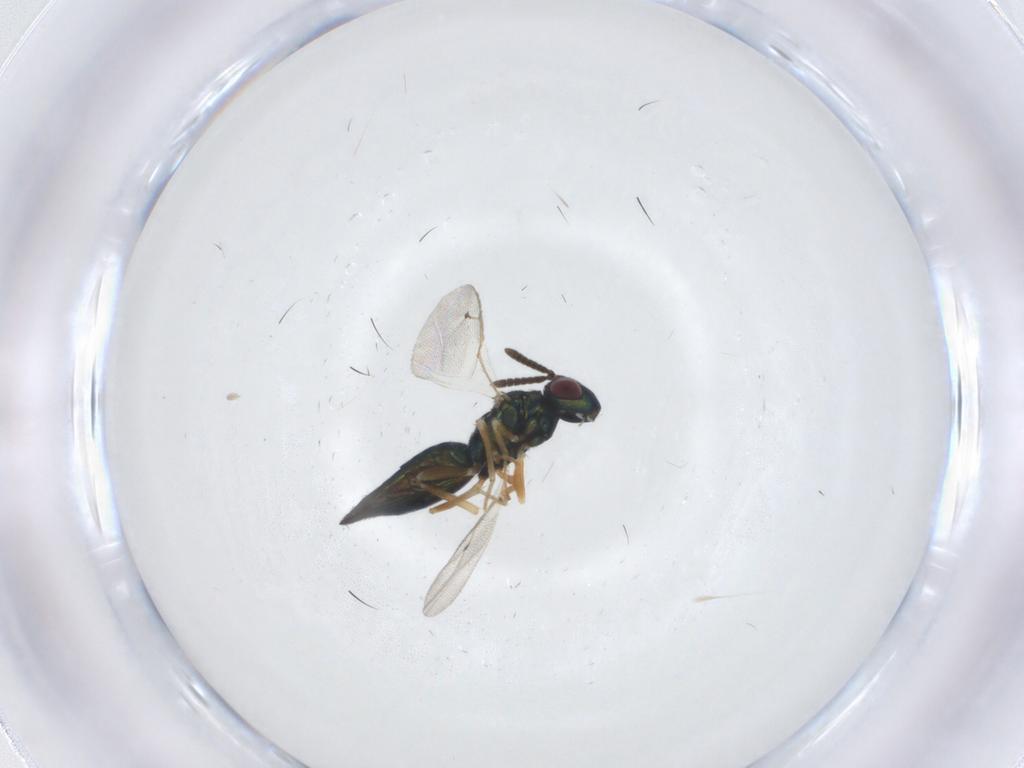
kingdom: Animalia
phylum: Arthropoda
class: Insecta
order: Hymenoptera
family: Pteromalidae
